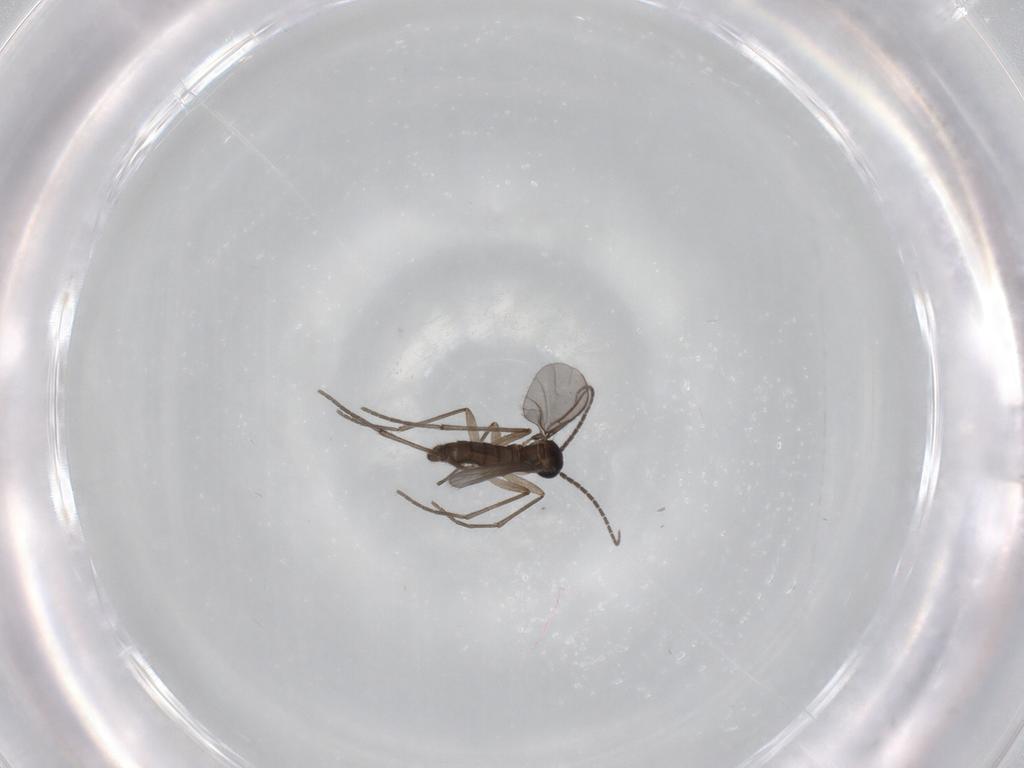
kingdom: Animalia
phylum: Arthropoda
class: Insecta
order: Diptera
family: Sciaridae
